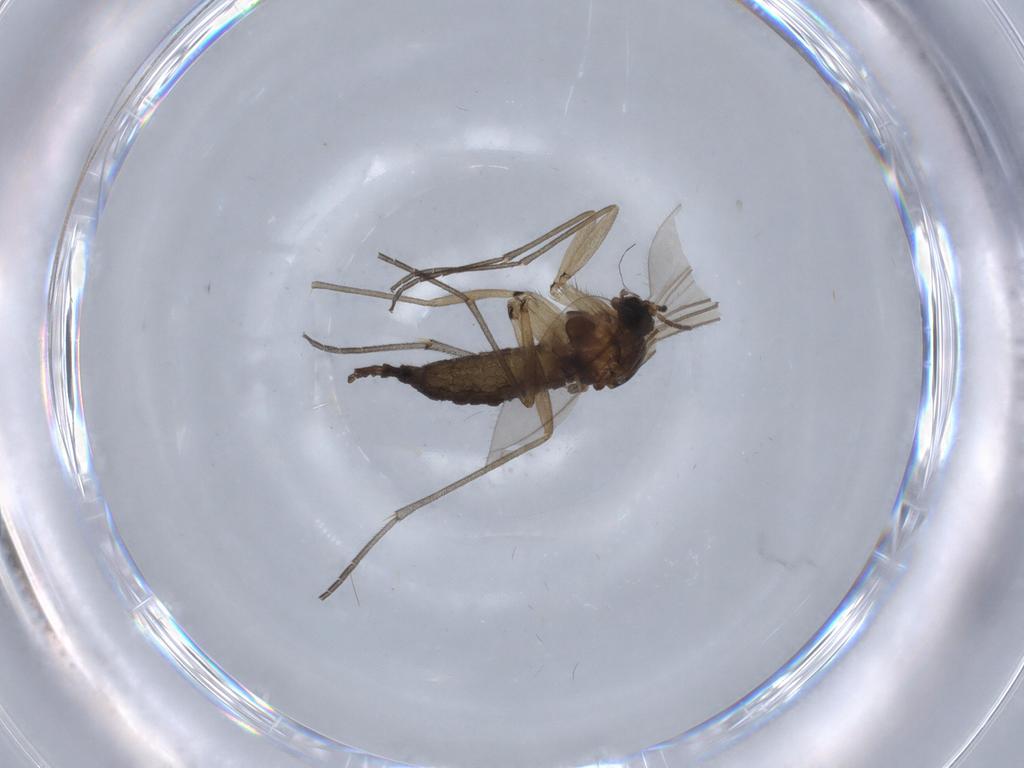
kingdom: Animalia
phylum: Arthropoda
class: Insecta
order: Diptera
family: Sciaridae
